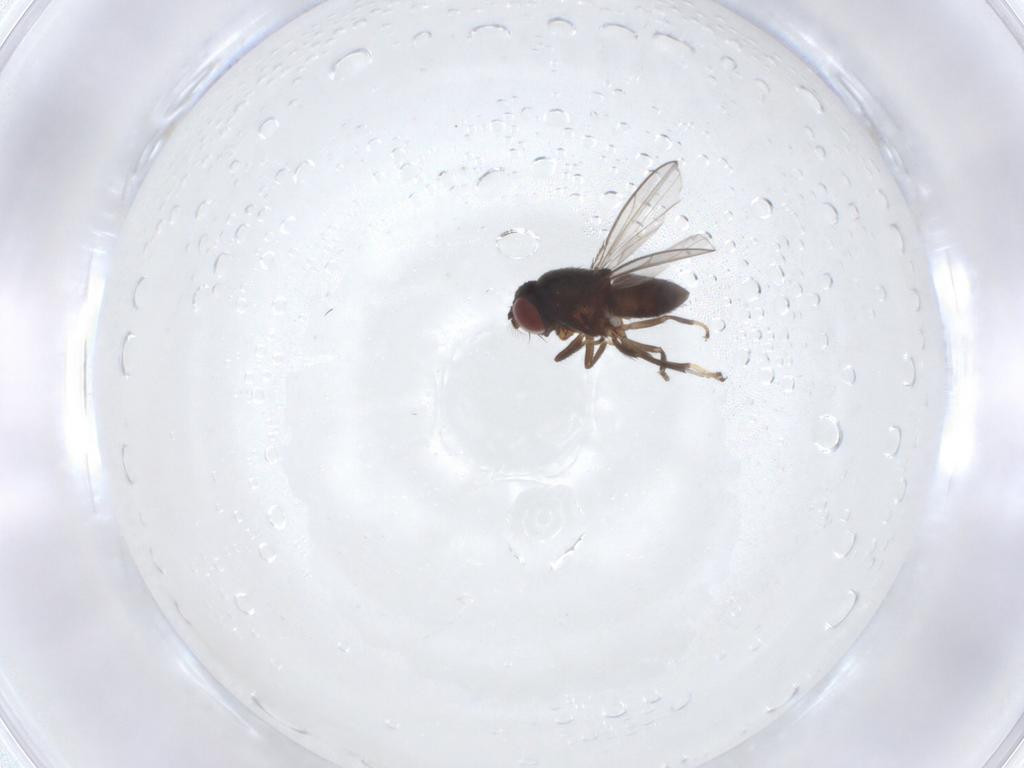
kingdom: Animalia
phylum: Arthropoda
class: Insecta
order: Diptera
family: Ephydridae
